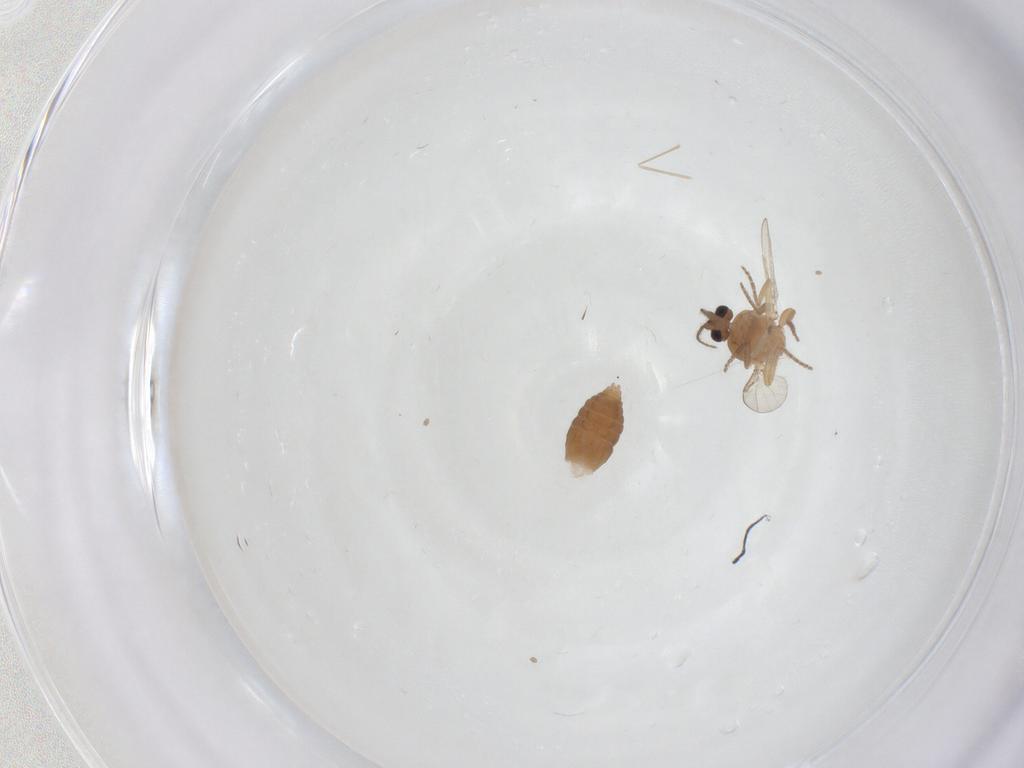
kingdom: Animalia
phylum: Arthropoda
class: Insecta
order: Diptera
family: Ceratopogonidae
